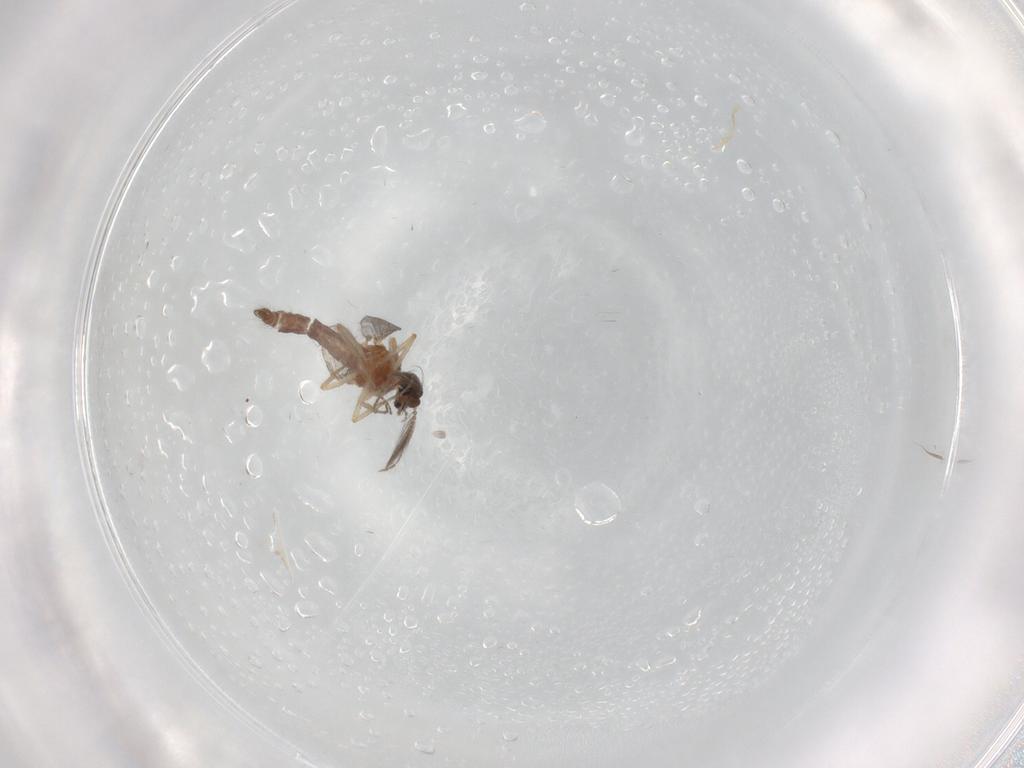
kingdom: Animalia
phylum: Arthropoda
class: Insecta
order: Diptera
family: Ceratopogonidae
